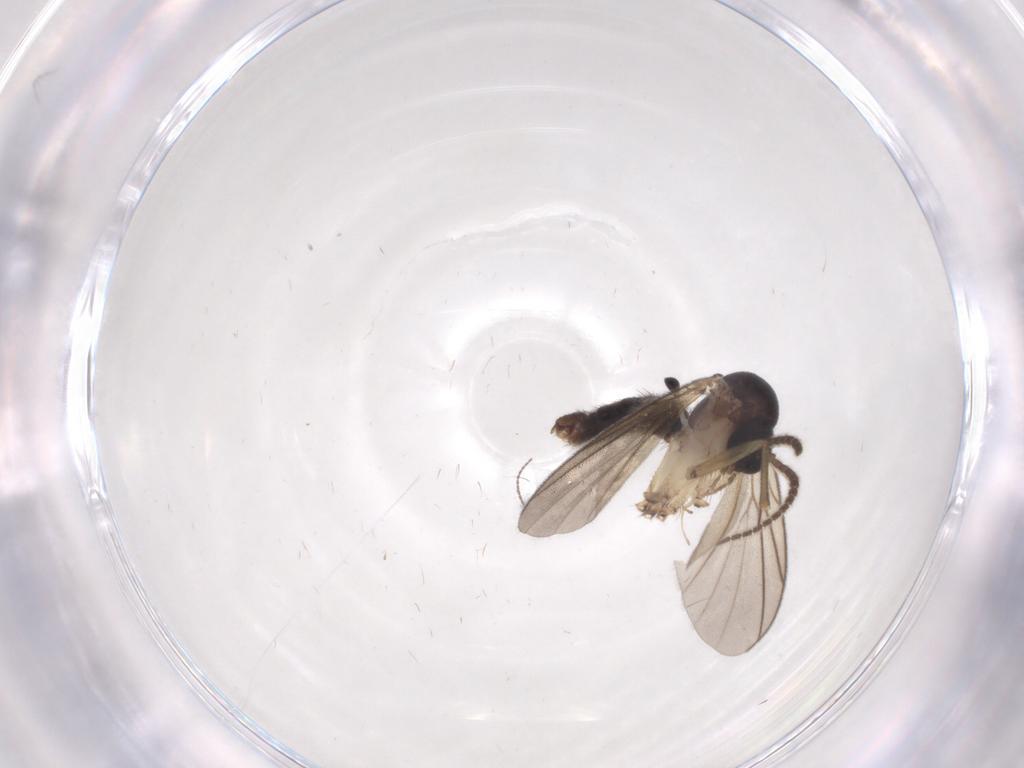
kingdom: Animalia
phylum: Arthropoda
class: Insecta
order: Diptera
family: Mycetophilidae
